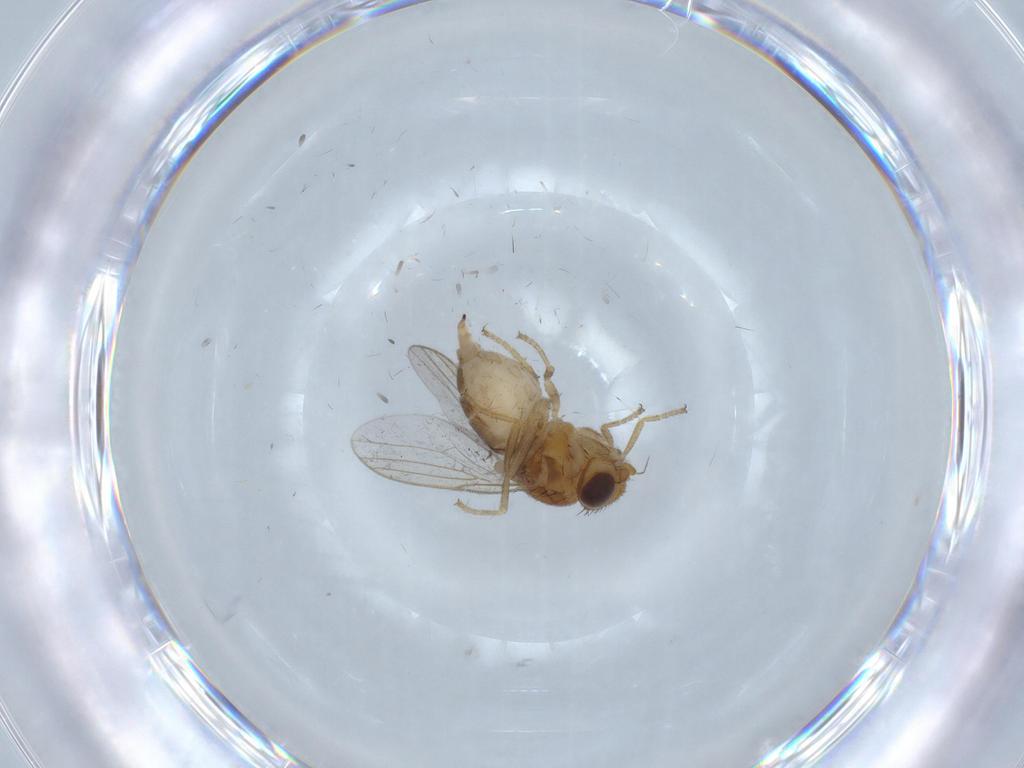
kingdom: Animalia
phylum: Arthropoda
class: Insecta
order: Diptera
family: Chloropidae
